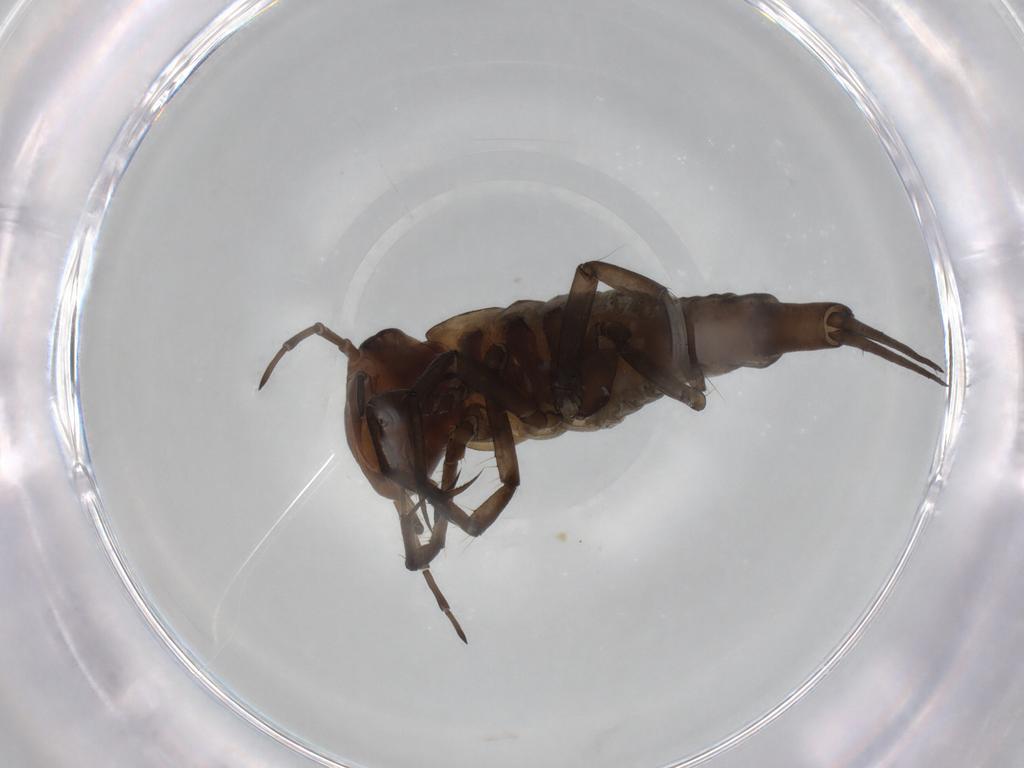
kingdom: Animalia
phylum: Arthropoda
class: Insecta
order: Coleoptera
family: Dytiscidae
